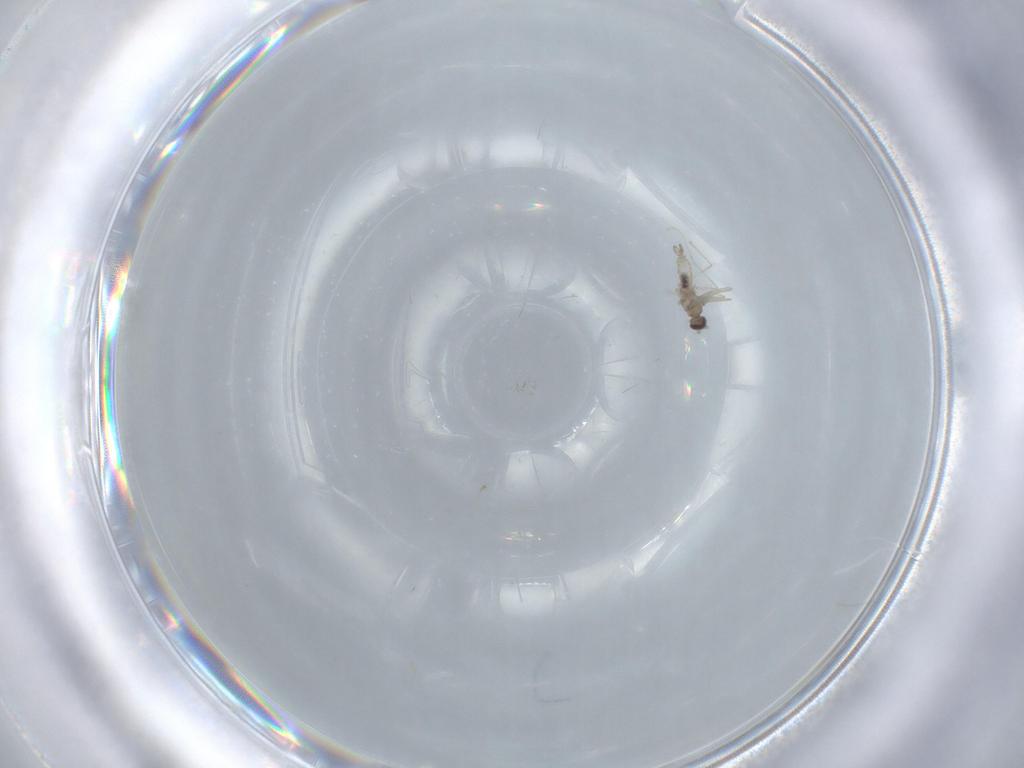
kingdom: Animalia
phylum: Arthropoda
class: Insecta
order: Diptera
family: Cecidomyiidae
